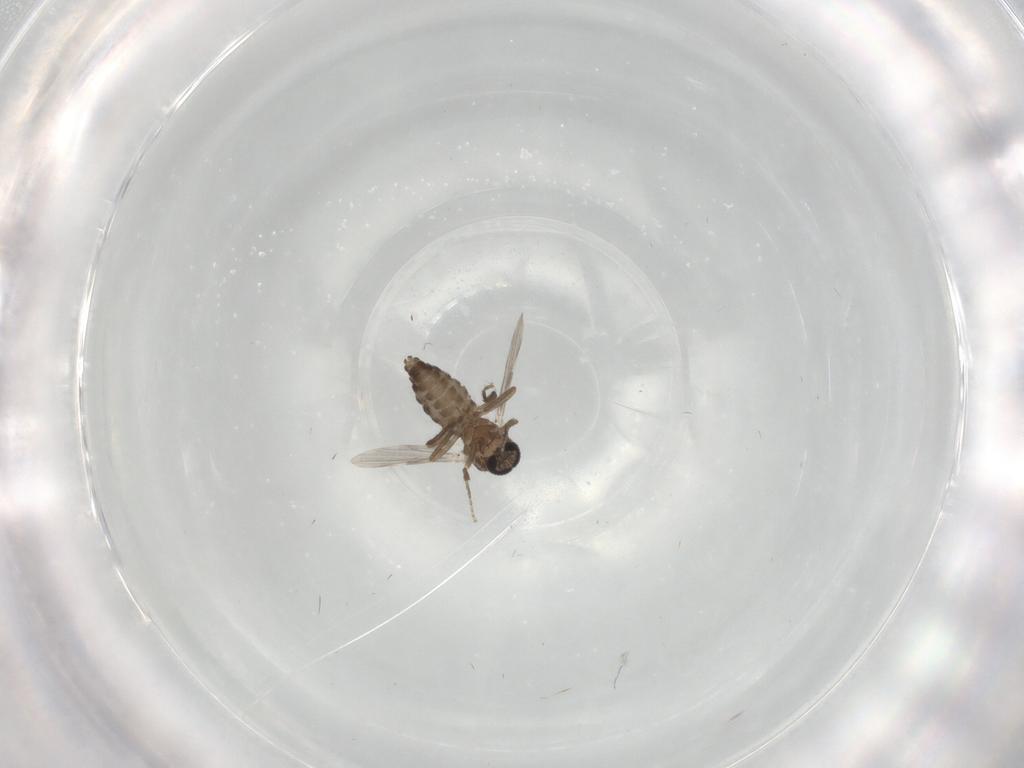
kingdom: Animalia
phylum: Arthropoda
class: Insecta
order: Diptera
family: Ceratopogonidae
